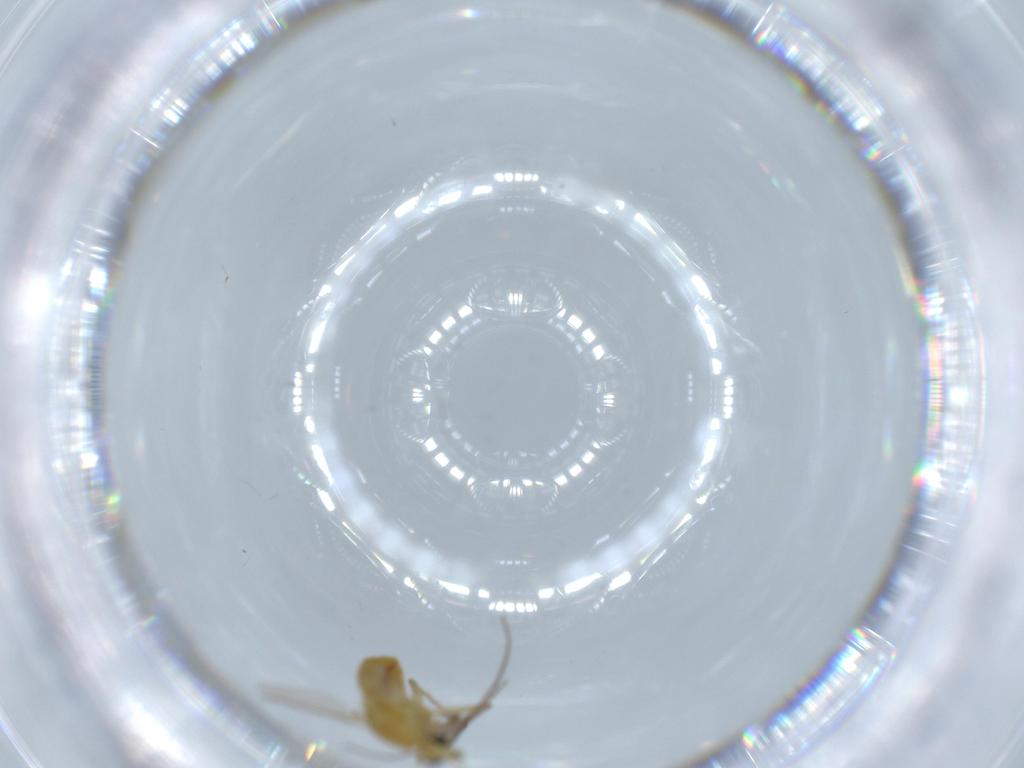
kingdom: Animalia
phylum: Arthropoda
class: Insecta
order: Diptera
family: Chironomidae
